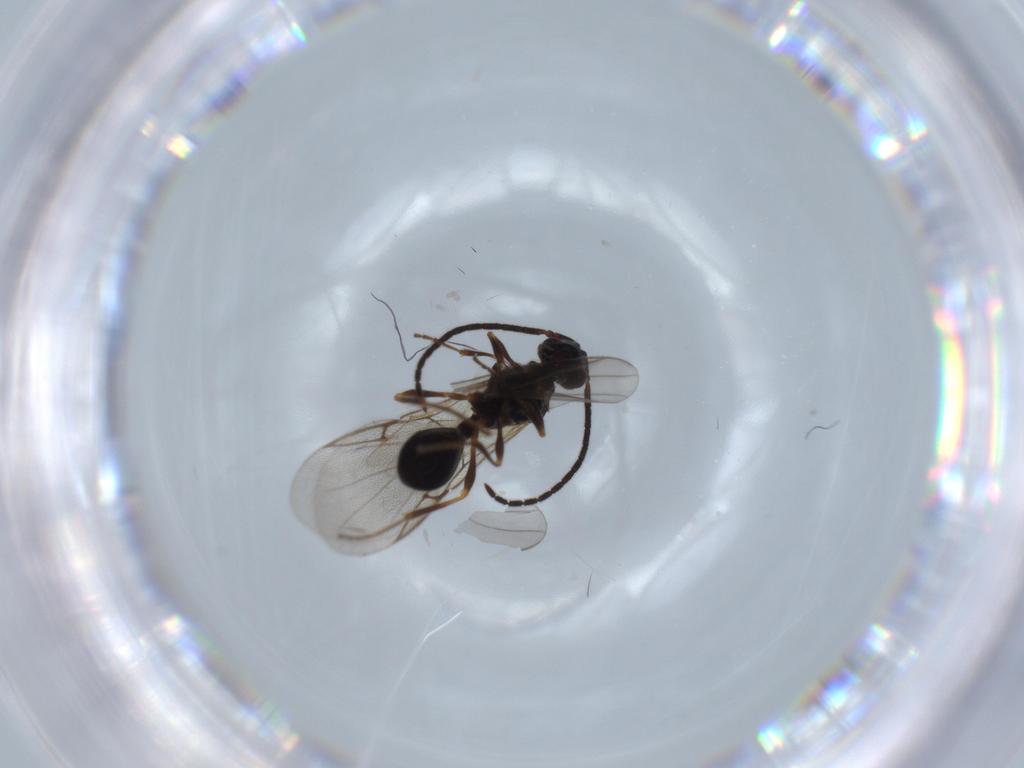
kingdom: Animalia
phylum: Arthropoda
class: Insecta
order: Hymenoptera
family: Diapriidae
